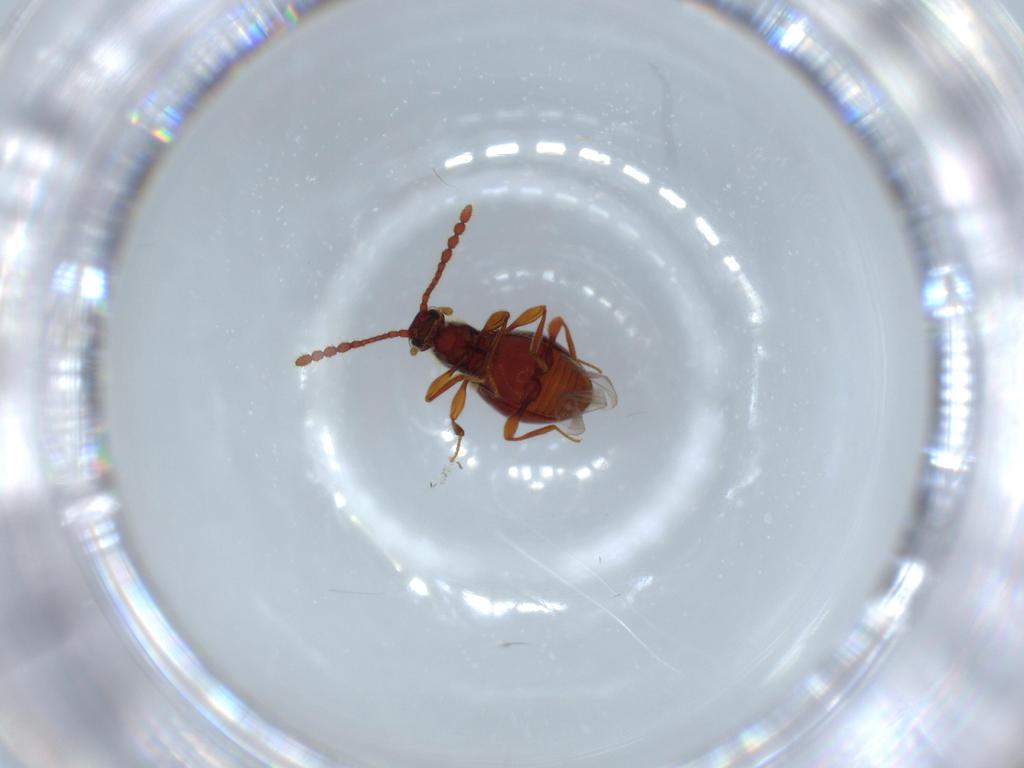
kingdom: Animalia
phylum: Arthropoda
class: Insecta
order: Coleoptera
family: Staphylinidae
